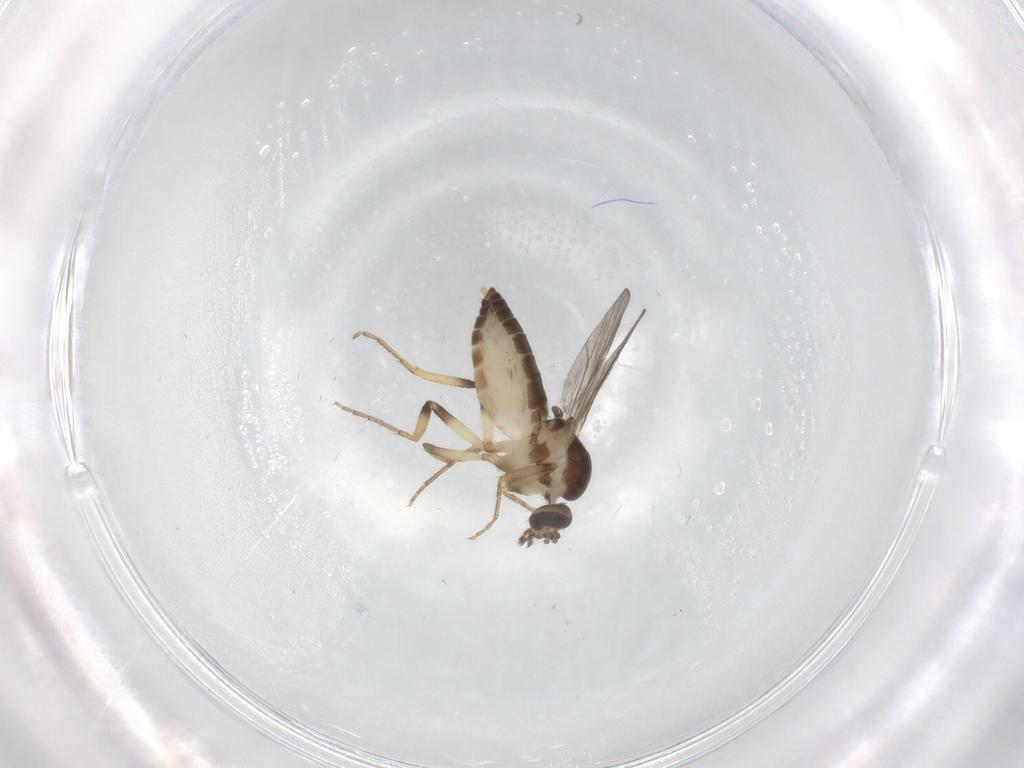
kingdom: Animalia
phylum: Arthropoda
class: Insecta
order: Diptera
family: Ceratopogonidae
